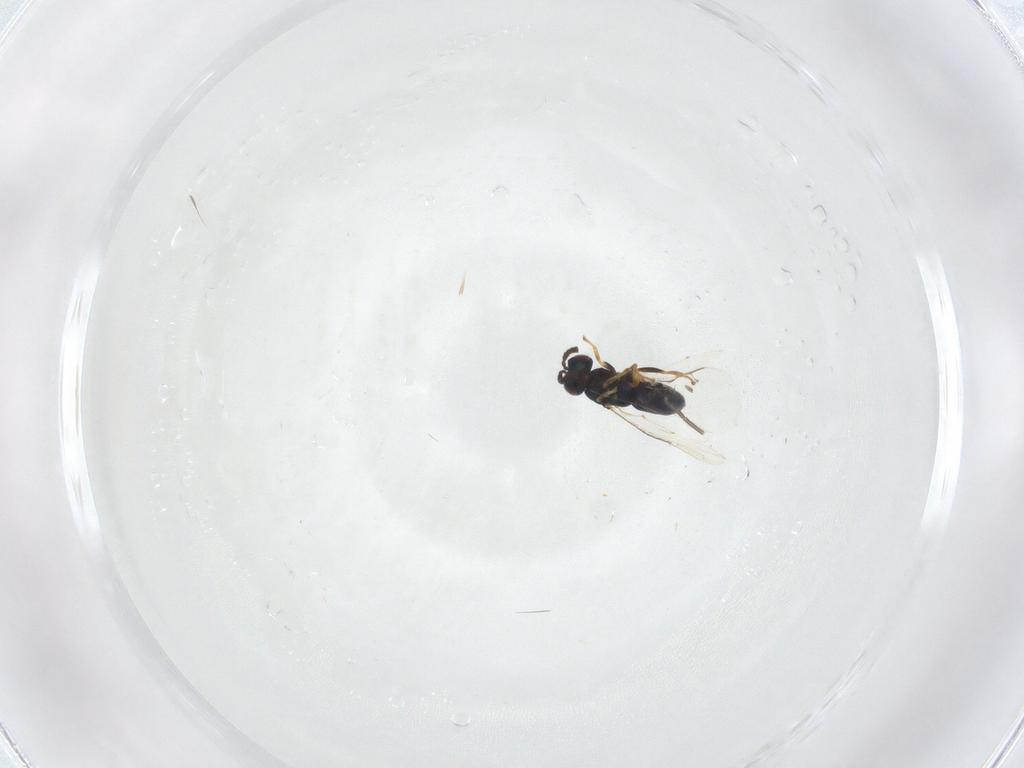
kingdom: Animalia
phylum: Arthropoda
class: Insecta
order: Hymenoptera
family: Pteromalidae
